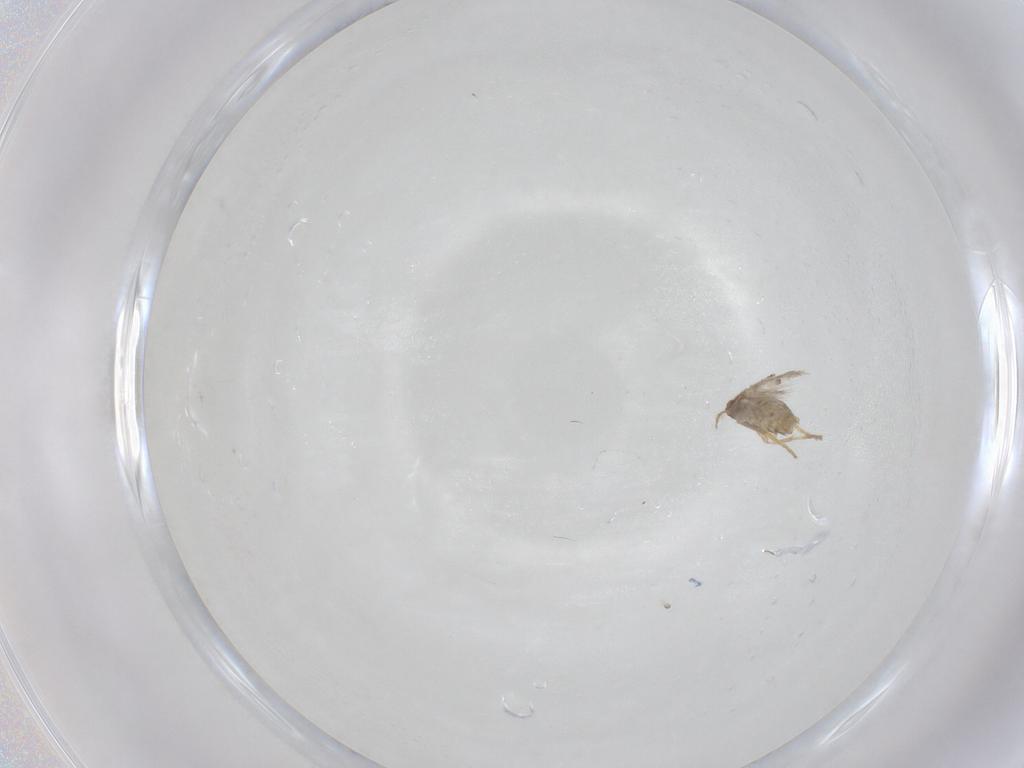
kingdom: Animalia
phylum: Arthropoda
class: Insecta
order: Lepidoptera
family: Nepticulidae
